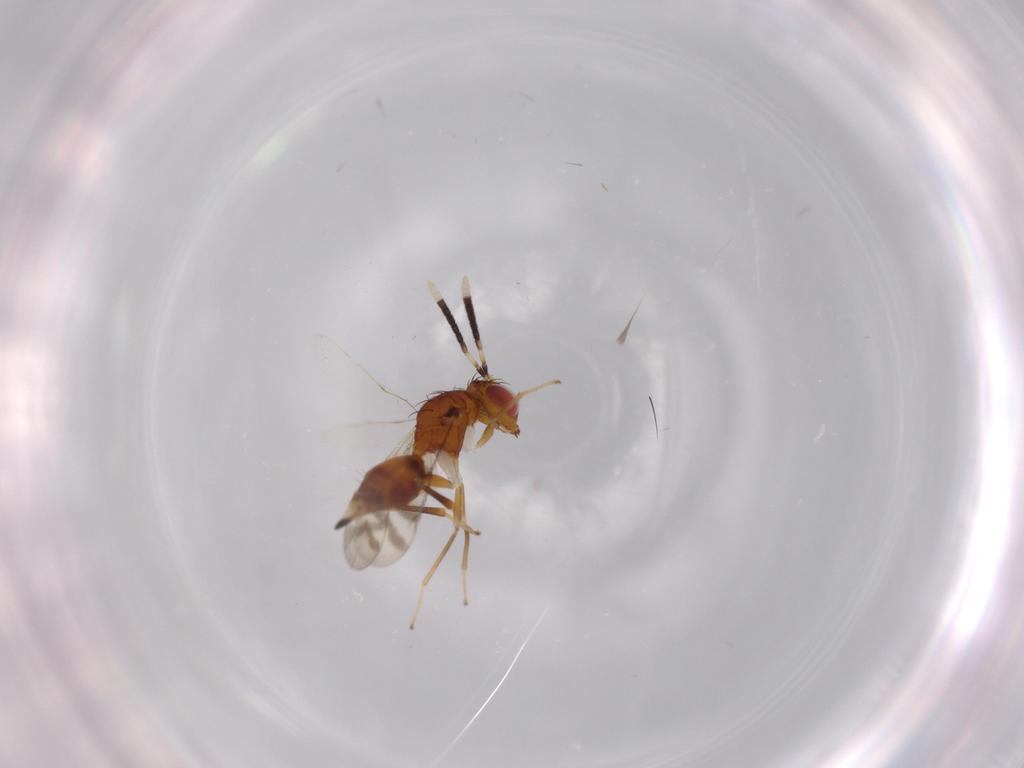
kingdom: Animalia
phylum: Arthropoda
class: Insecta
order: Hymenoptera
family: Diparidae
